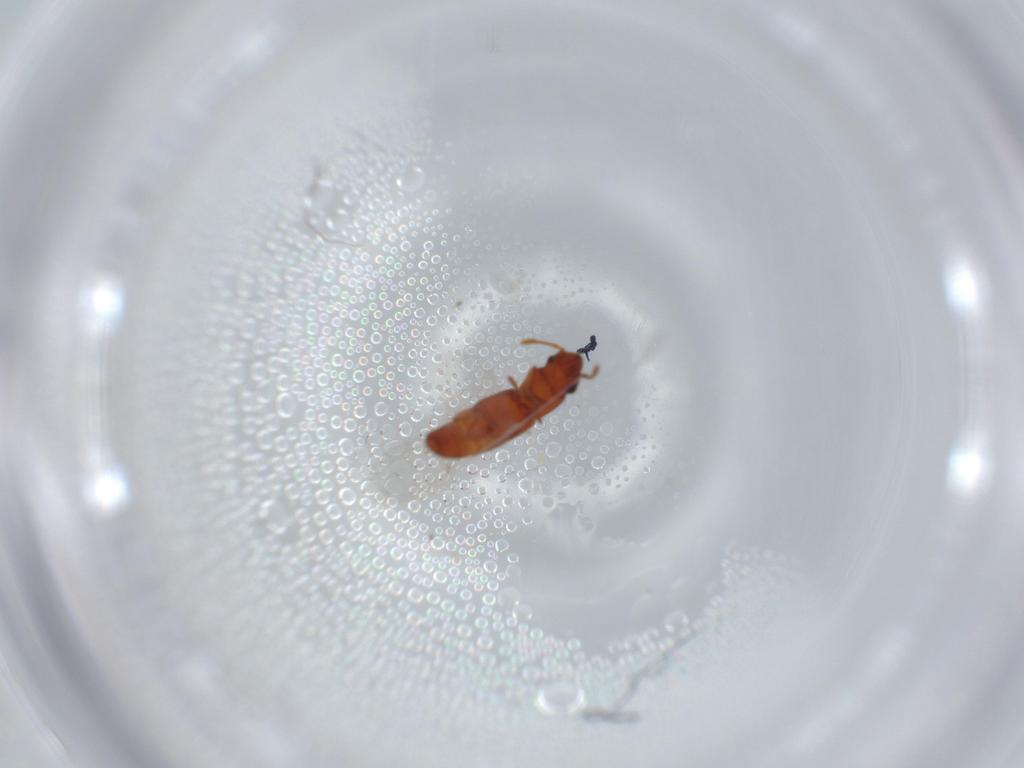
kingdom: Animalia
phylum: Arthropoda
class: Insecta
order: Coleoptera
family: Smicripidae
